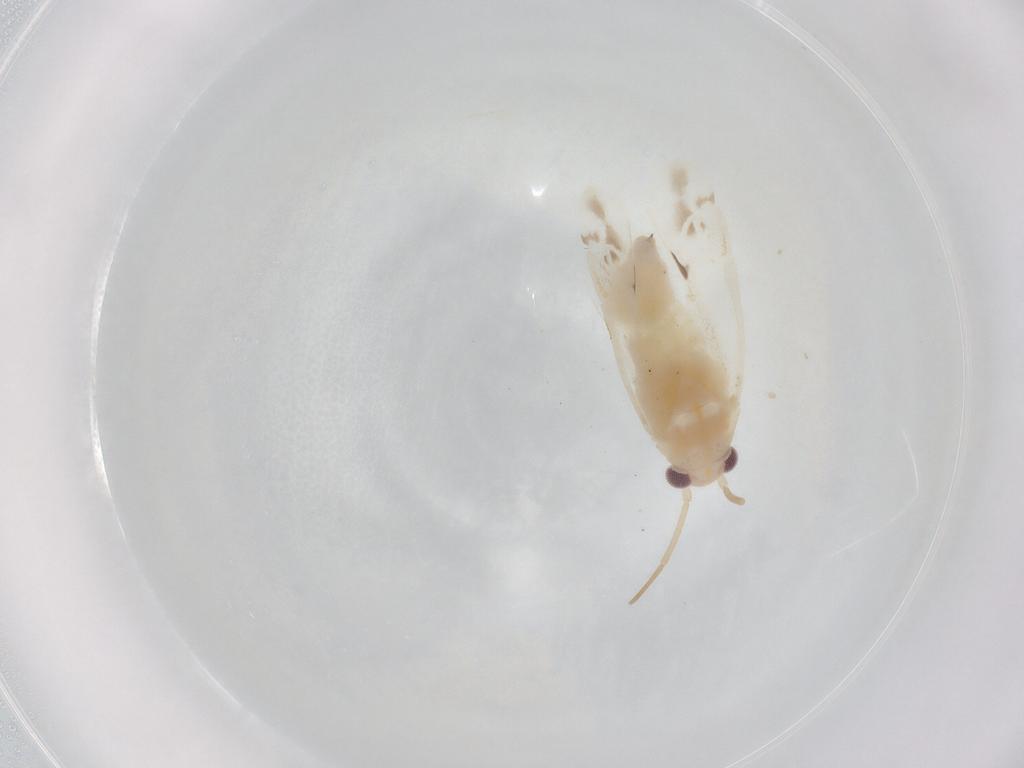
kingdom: Animalia
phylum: Arthropoda
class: Insecta
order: Hemiptera
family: Miridae
